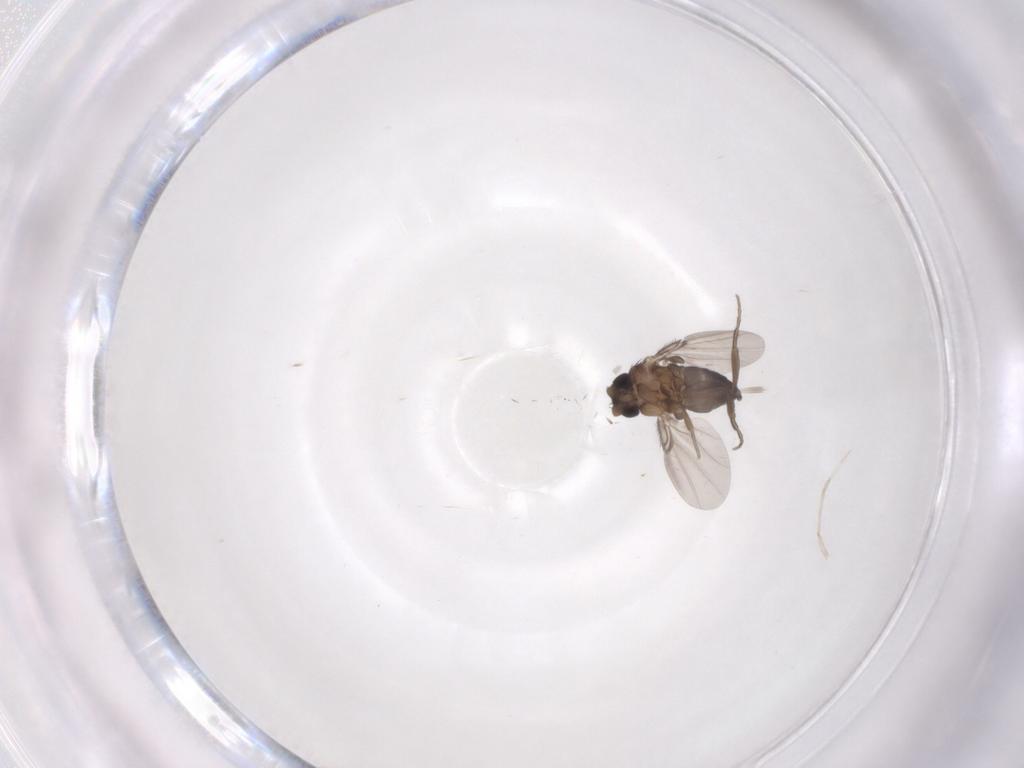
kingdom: Animalia
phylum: Arthropoda
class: Insecta
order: Diptera
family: Phoridae
